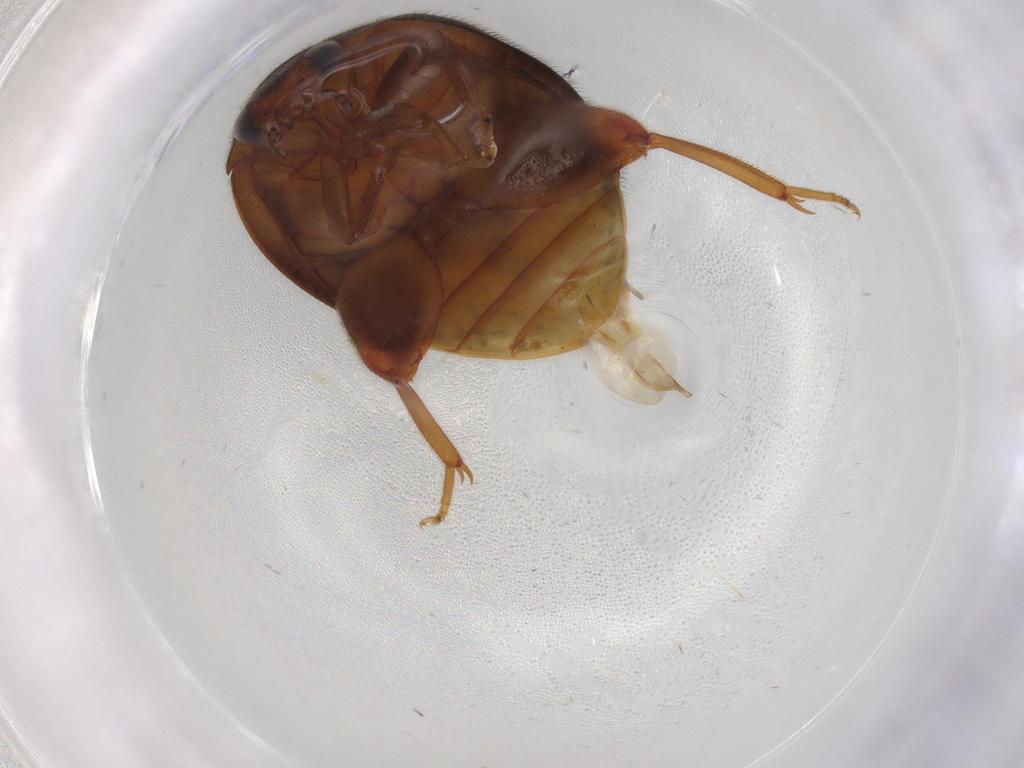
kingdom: Animalia
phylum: Arthropoda
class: Insecta
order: Coleoptera
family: Scirtidae
